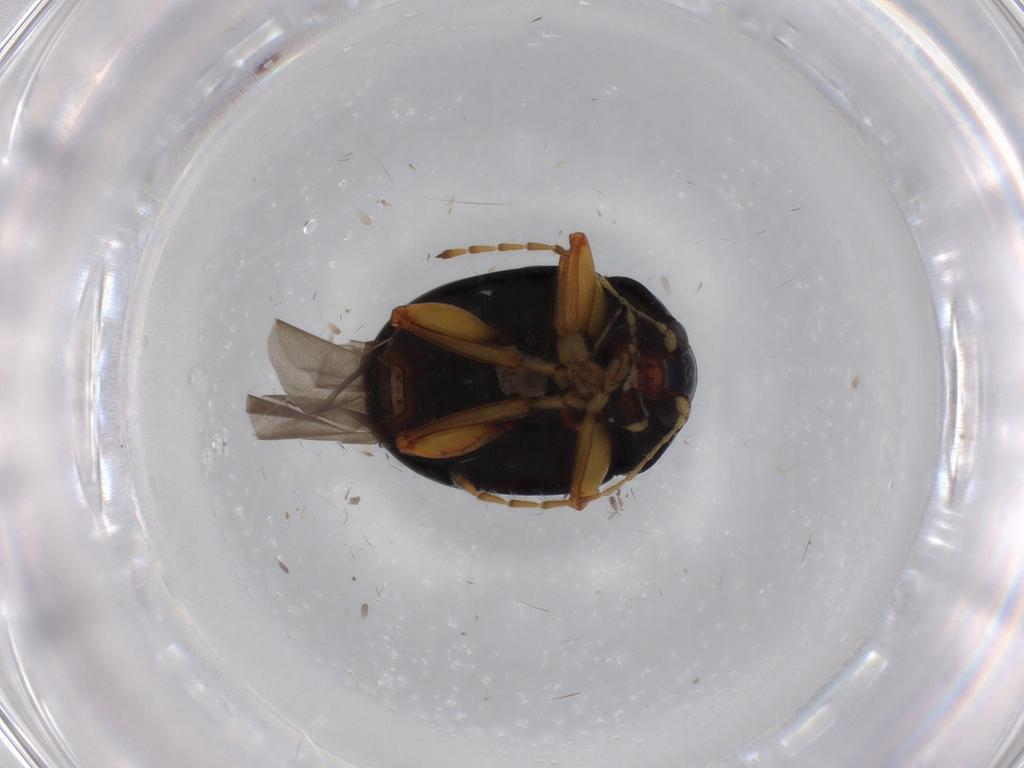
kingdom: Animalia
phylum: Arthropoda
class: Insecta
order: Coleoptera
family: Chrysomelidae
